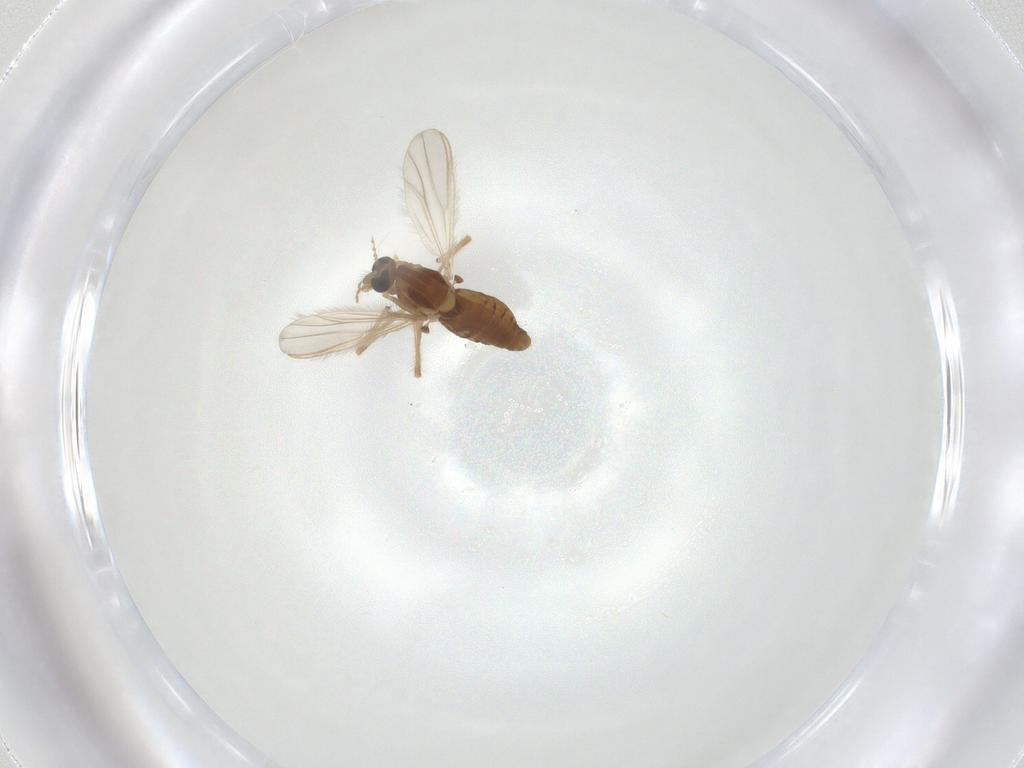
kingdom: Animalia
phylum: Arthropoda
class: Insecta
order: Diptera
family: Chironomidae
